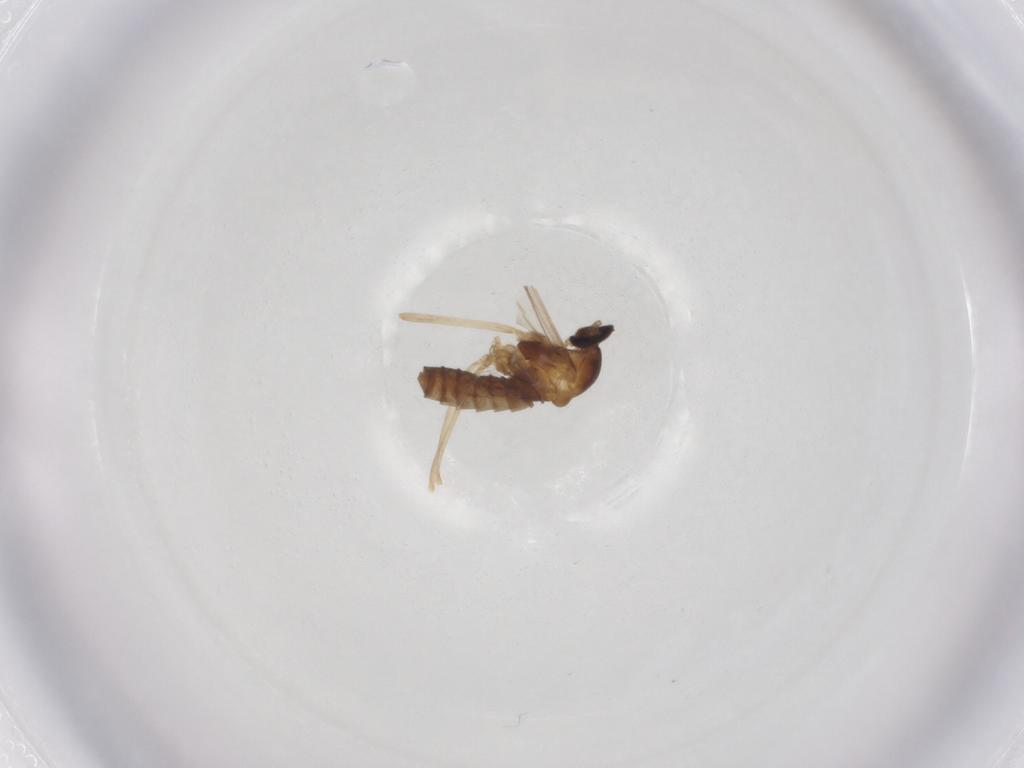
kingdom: Animalia
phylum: Arthropoda
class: Insecta
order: Diptera
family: Cecidomyiidae
